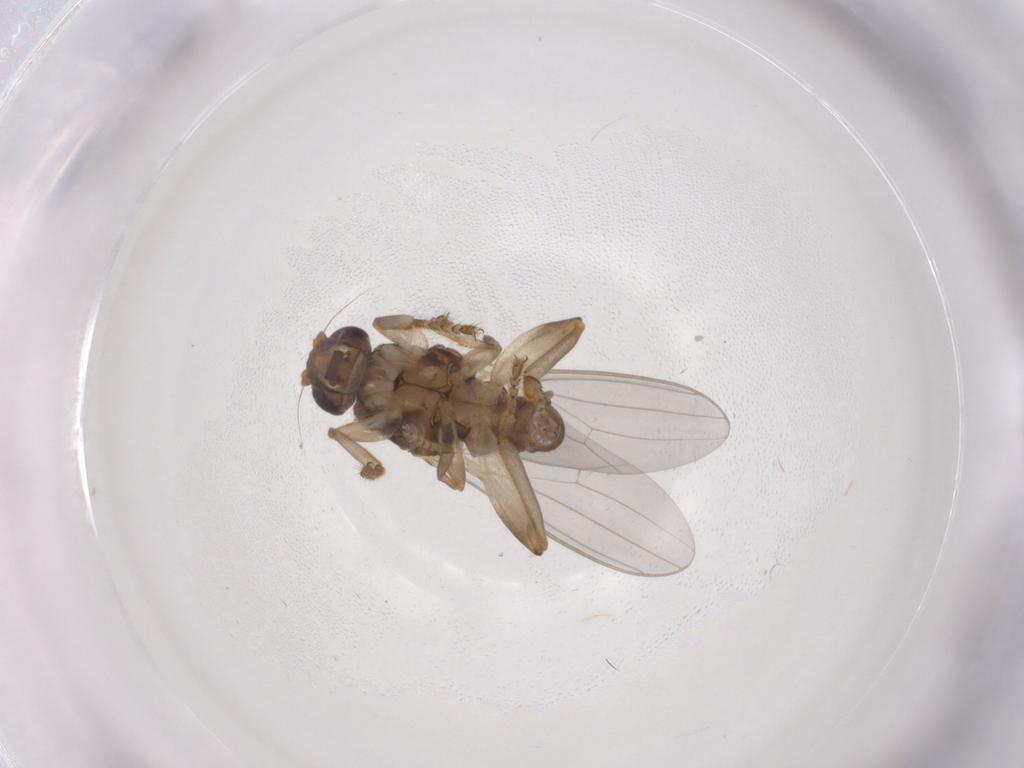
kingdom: Animalia
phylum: Arthropoda
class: Insecta
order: Diptera
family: Sphaeroceridae
